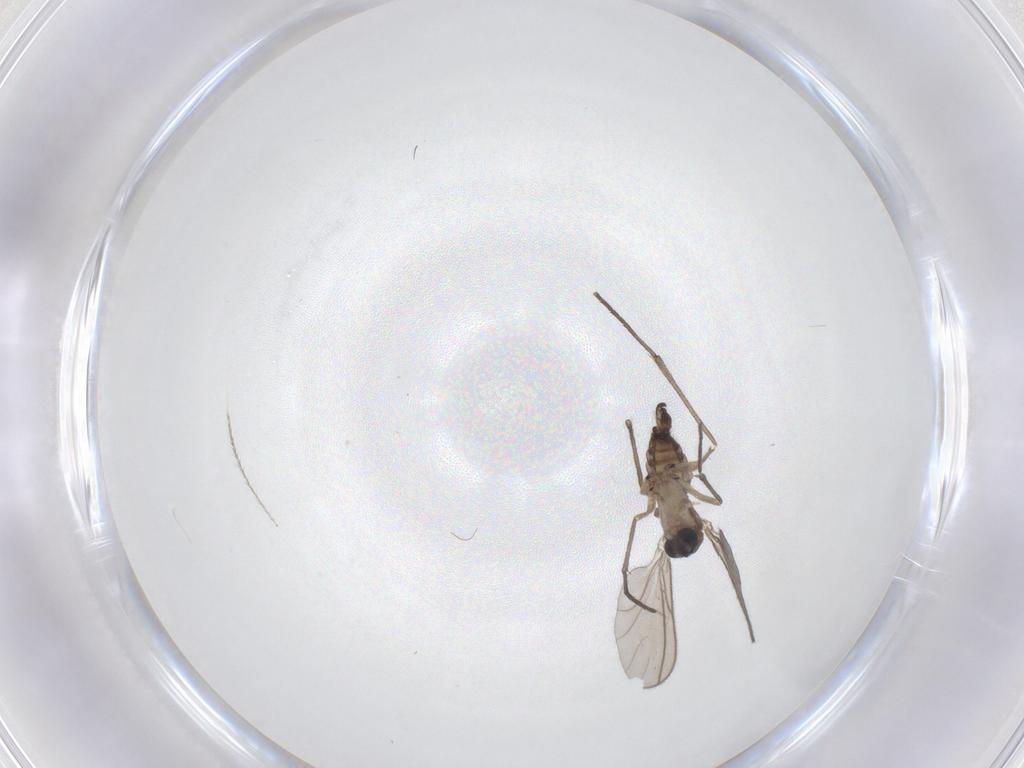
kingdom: Animalia
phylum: Arthropoda
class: Insecta
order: Diptera
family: Sciaridae
